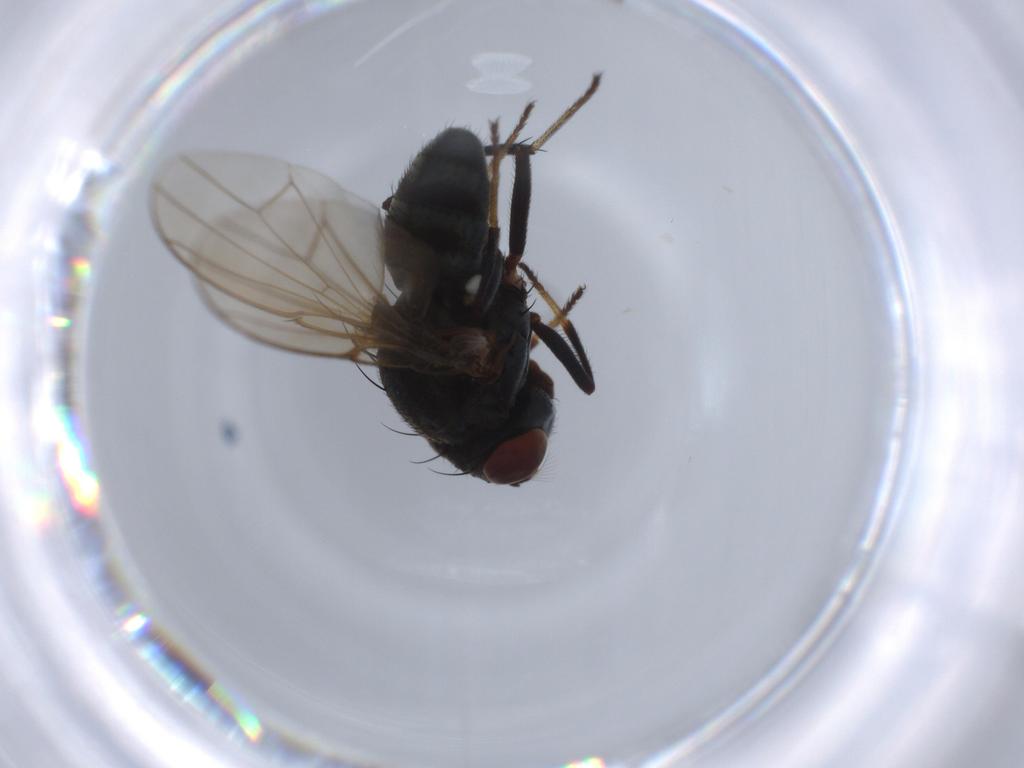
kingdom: Animalia
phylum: Arthropoda
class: Insecta
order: Diptera
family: Ephydridae
